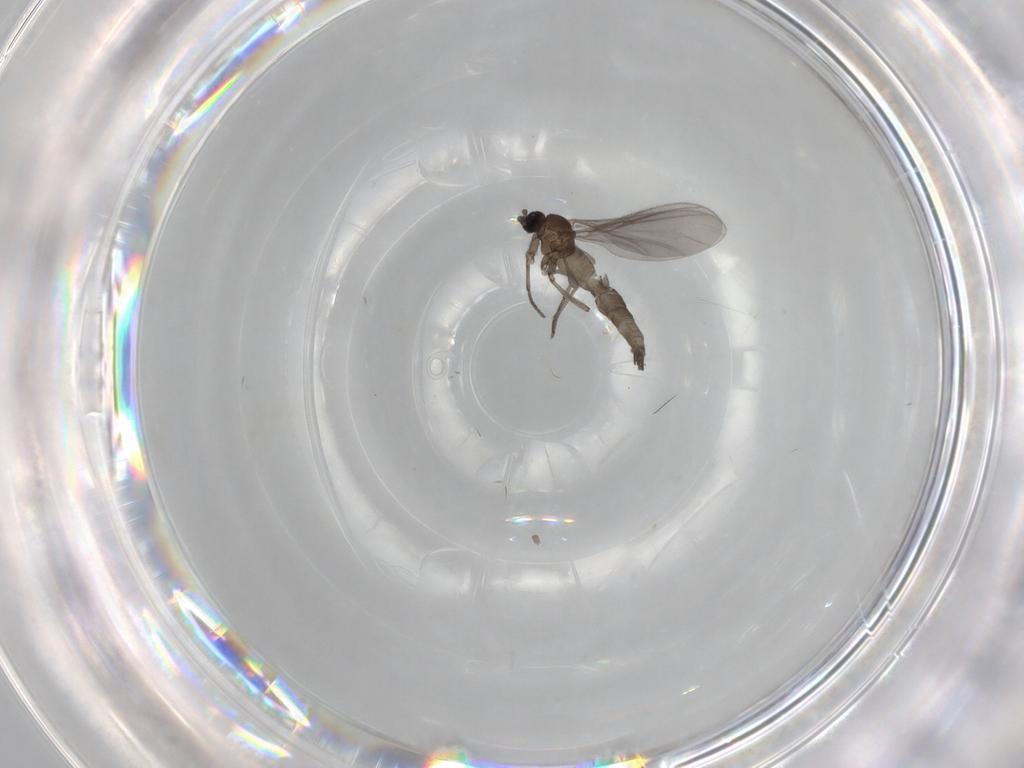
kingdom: Animalia
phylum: Arthropoda
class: Insecta
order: Diptera
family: Sciaridae
